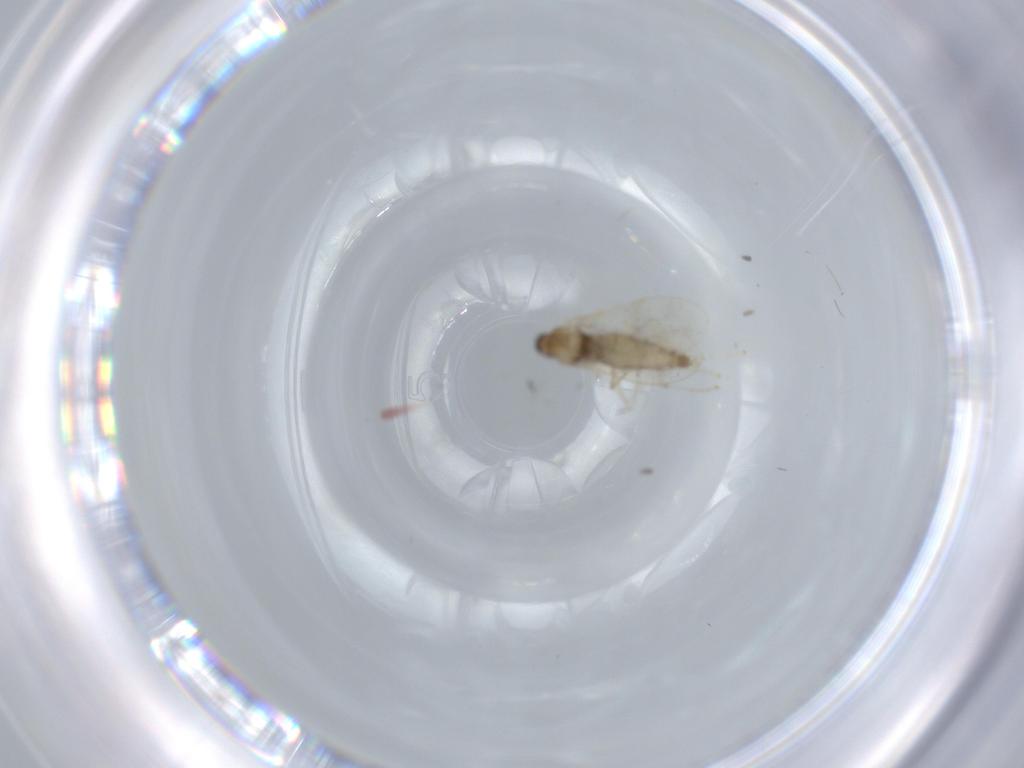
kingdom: Animalia
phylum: Arthropoda
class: Insecta
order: Diptera
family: Cecidomyiidae
